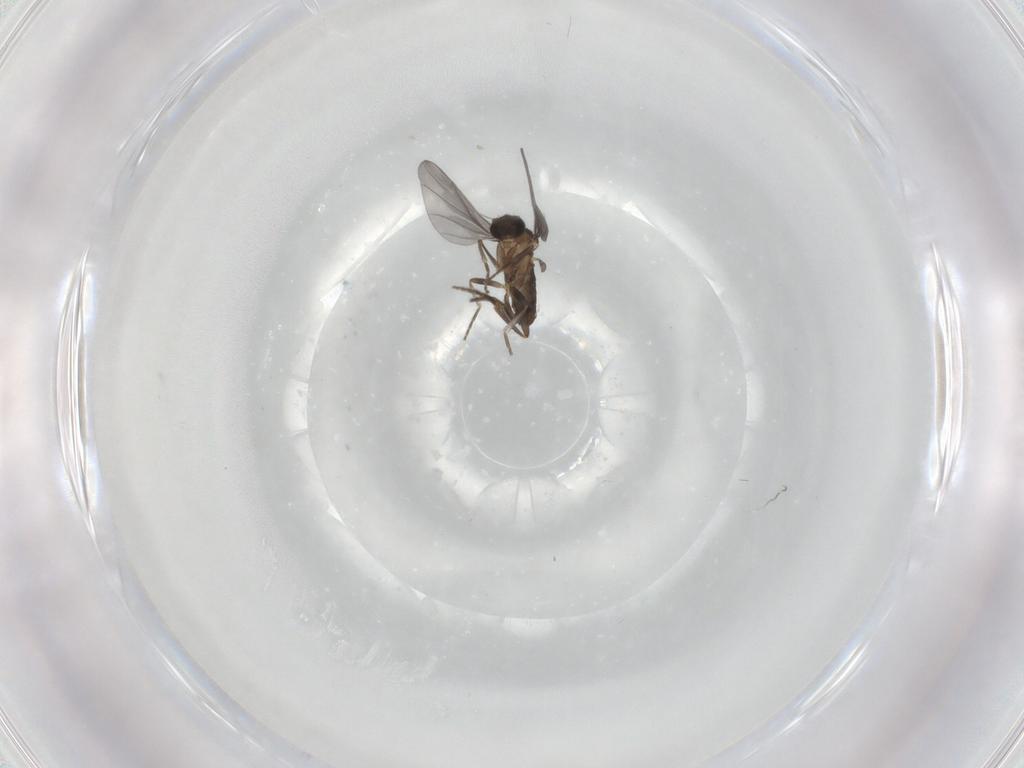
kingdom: Animalia
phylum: Arthropoda
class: Insecta
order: Diptera
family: Phoridae
